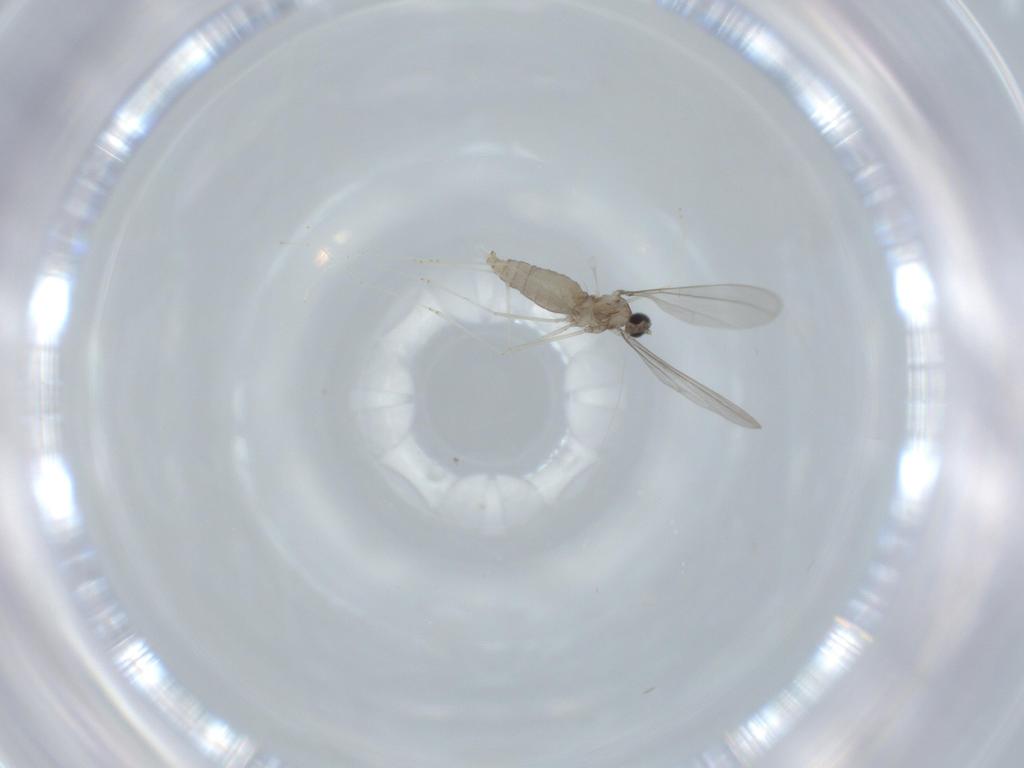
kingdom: Animalia
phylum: Arthropoda
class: Insecta
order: Diptera
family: Cecidomyiidae
